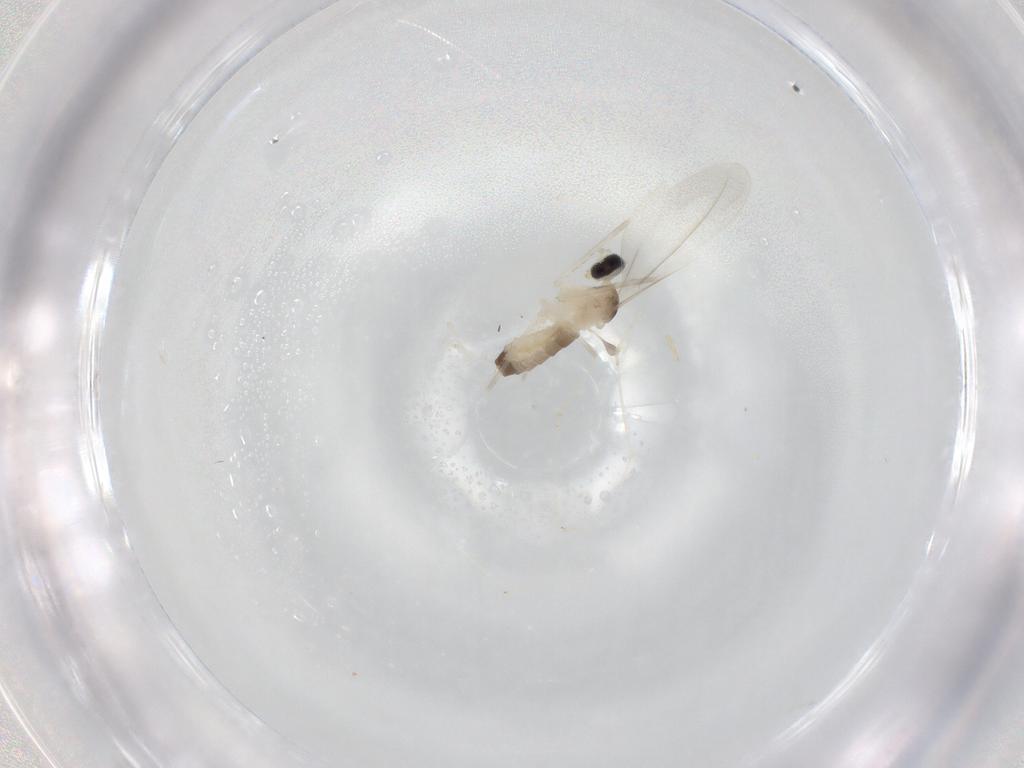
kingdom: Animalia
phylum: Arthropoda
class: Insecta
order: Diptera
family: Cecidomyiidae
